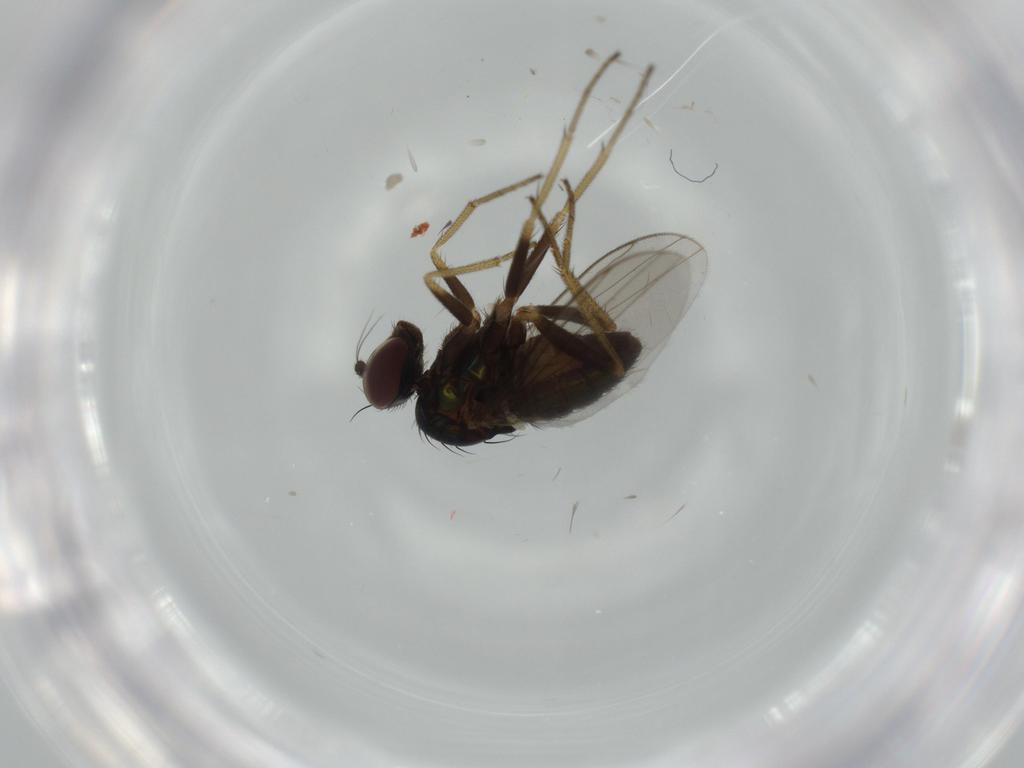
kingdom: Animalia
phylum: Arthropoda
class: Insecta
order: Diptera
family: Dolichopodidae
